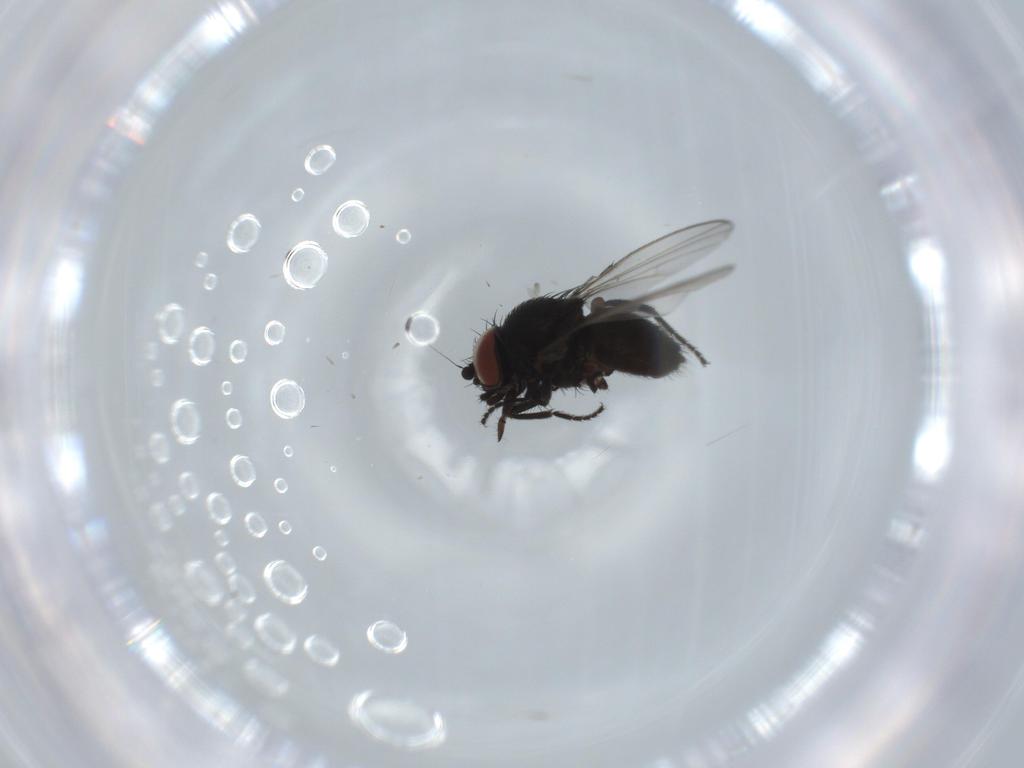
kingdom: Animalia
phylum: Arthropoda
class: Insecta
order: Diptera
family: Milichiidae
